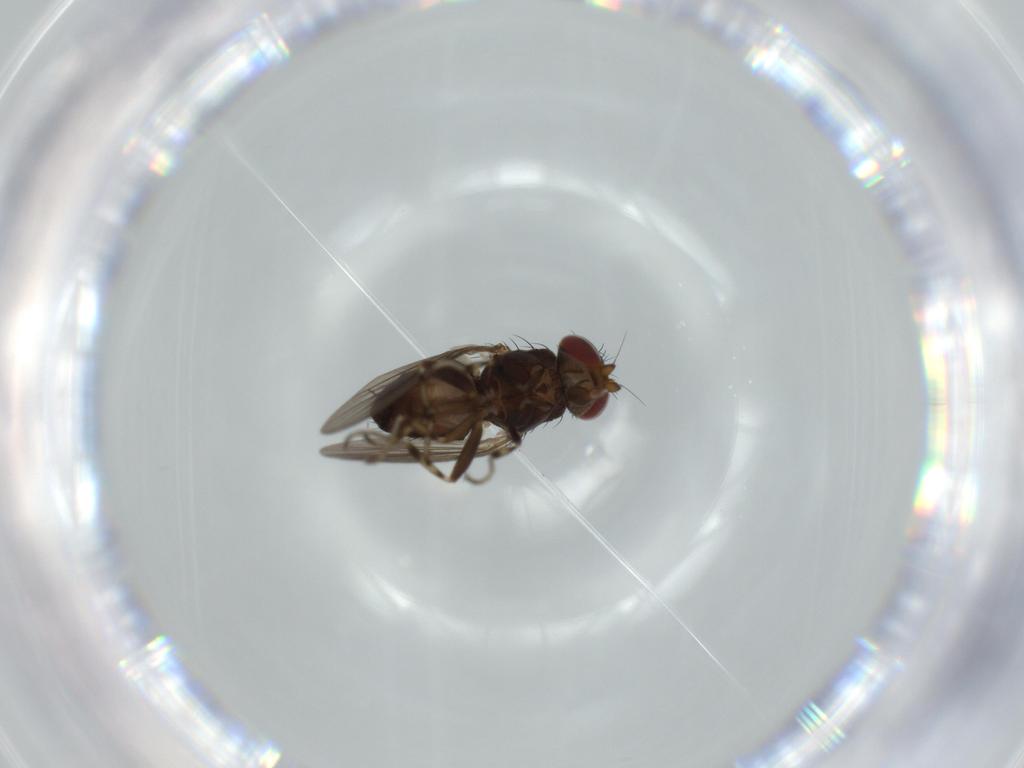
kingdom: Animalia
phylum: Arthropoda
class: Insecta
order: Diptera
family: Heleomyzidae
